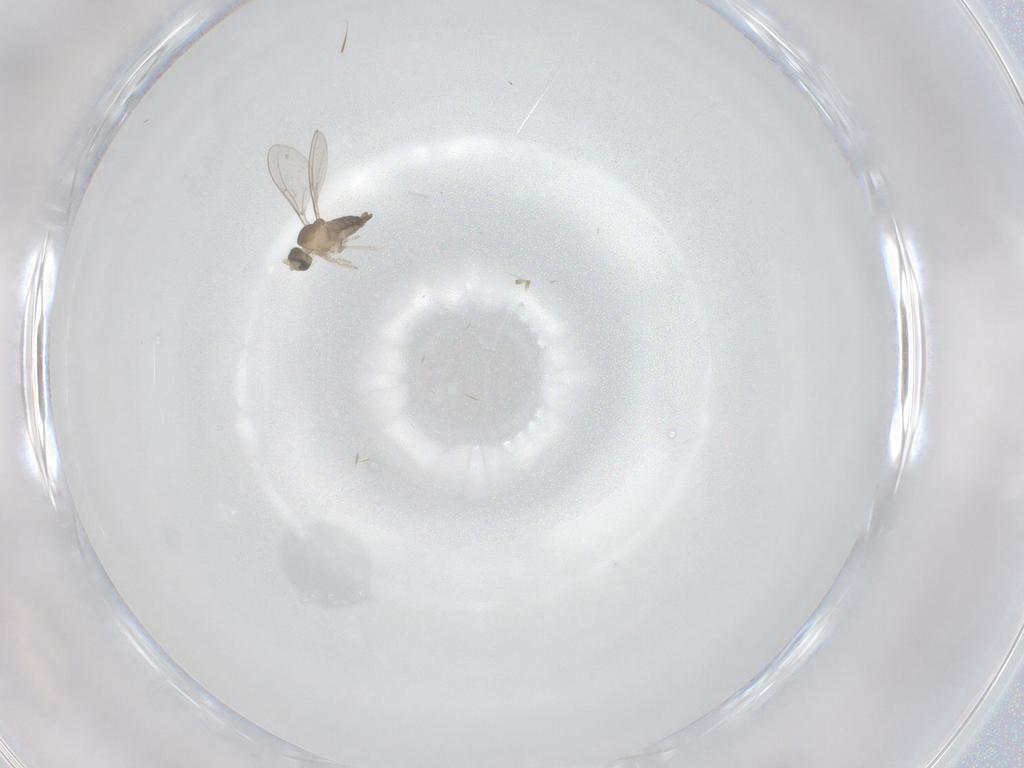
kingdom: Animalia
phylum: Arthropoda
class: Insecta
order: Diptera
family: Cecidomyiidae
